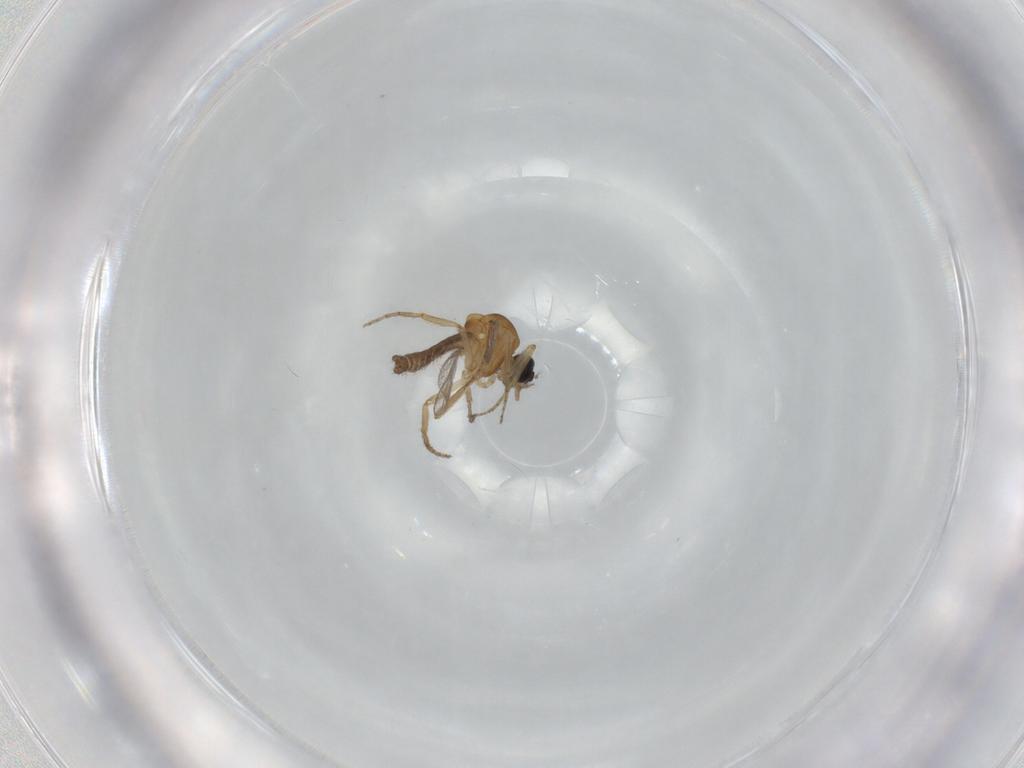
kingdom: Animalia
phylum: Arthropoda
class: Insecta
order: Diptera
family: Ceratopogonidae
